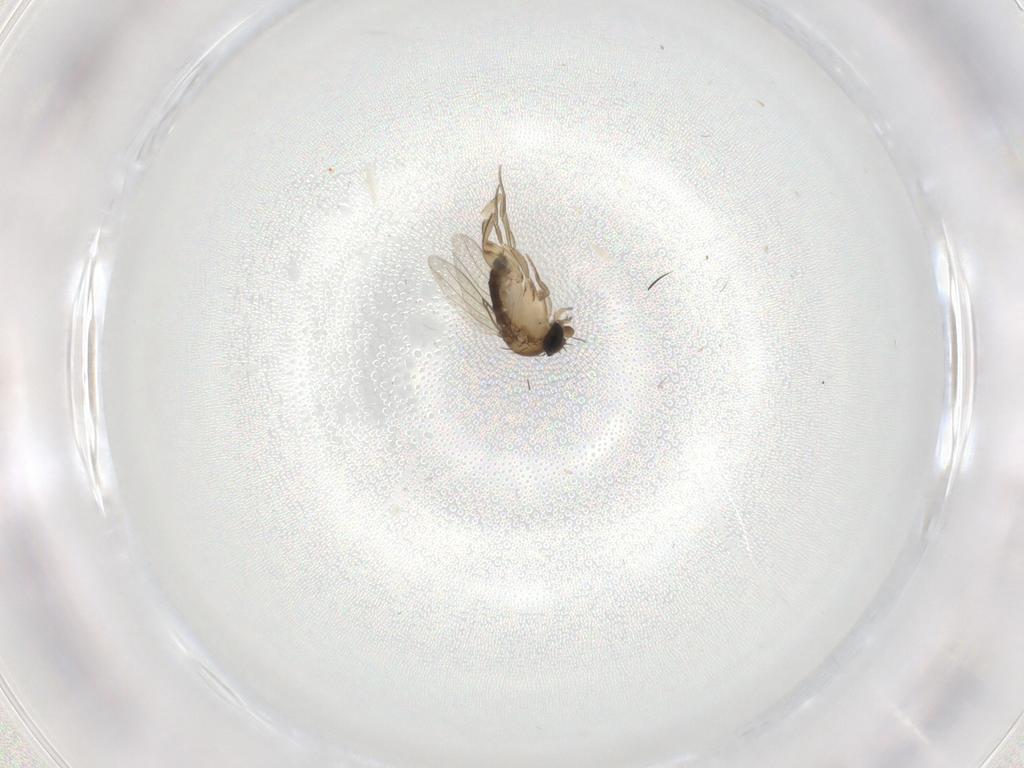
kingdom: Animalia
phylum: Arthropoda
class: Insecta
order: Diptera
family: Phoridae
